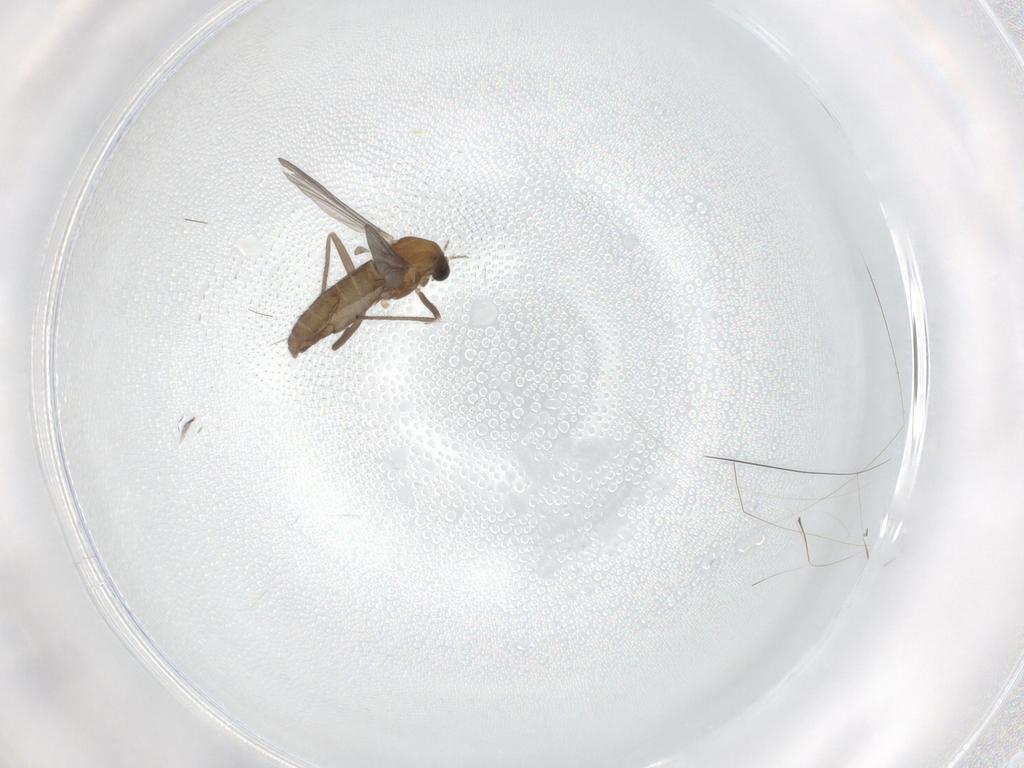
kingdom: Animalia
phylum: Arthropoda
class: Insecta
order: Diptera
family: Chironomidae
